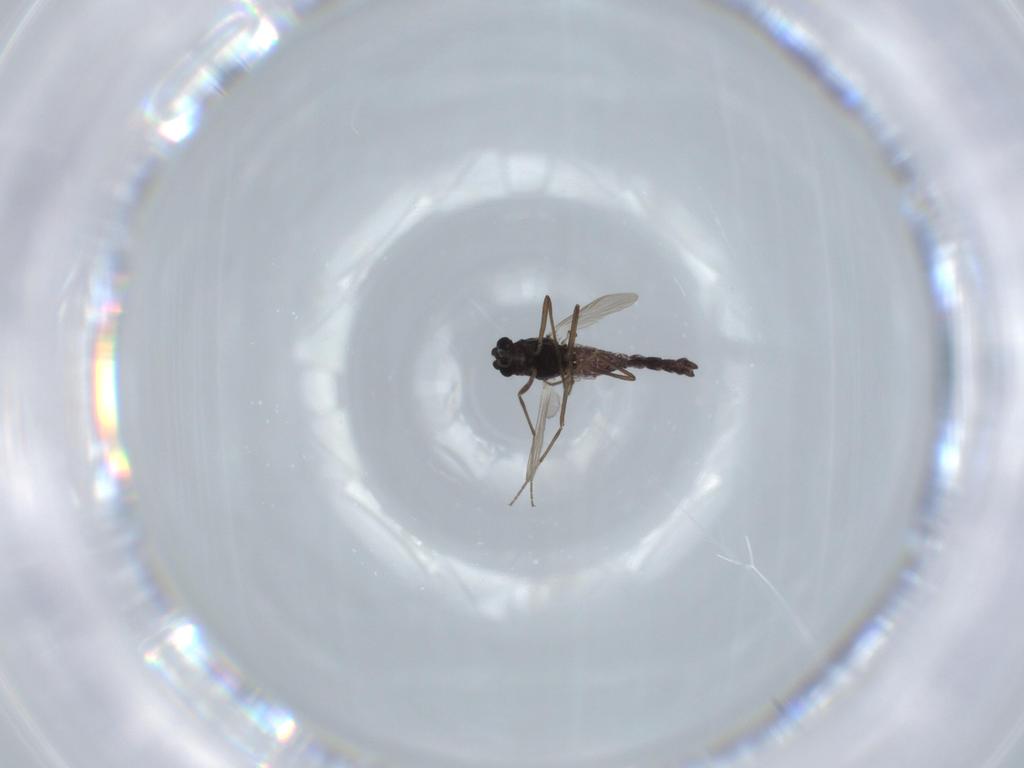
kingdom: Animalia
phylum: Arthropoda
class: Insecta
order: Diptera
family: Chironomidae
